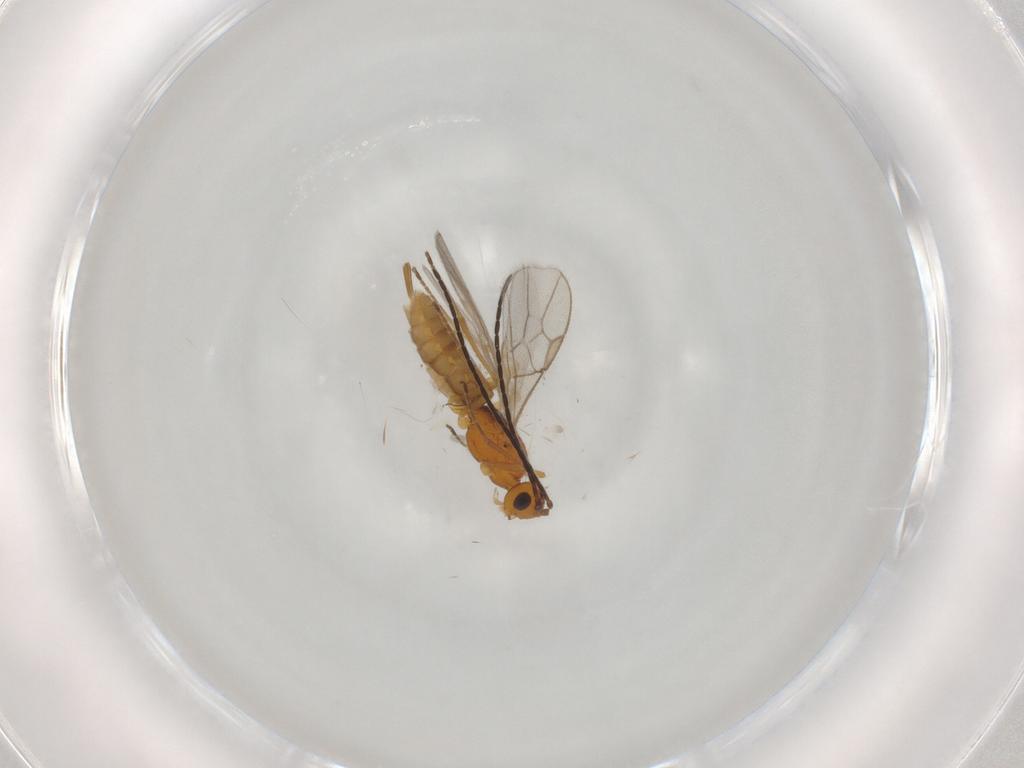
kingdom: Animalia
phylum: Arthropoda
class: Insecta
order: Hymenoptera
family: Braconidae
